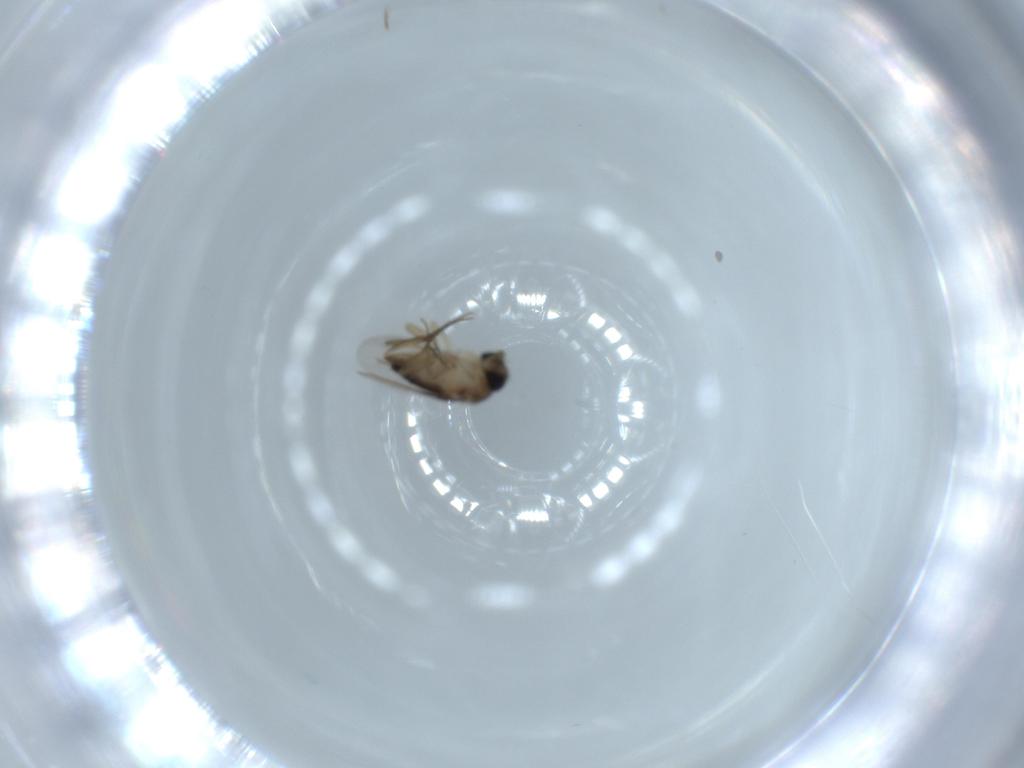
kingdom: Animalia
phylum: Arthropoda
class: Insecta
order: Diptera
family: Phoridae
